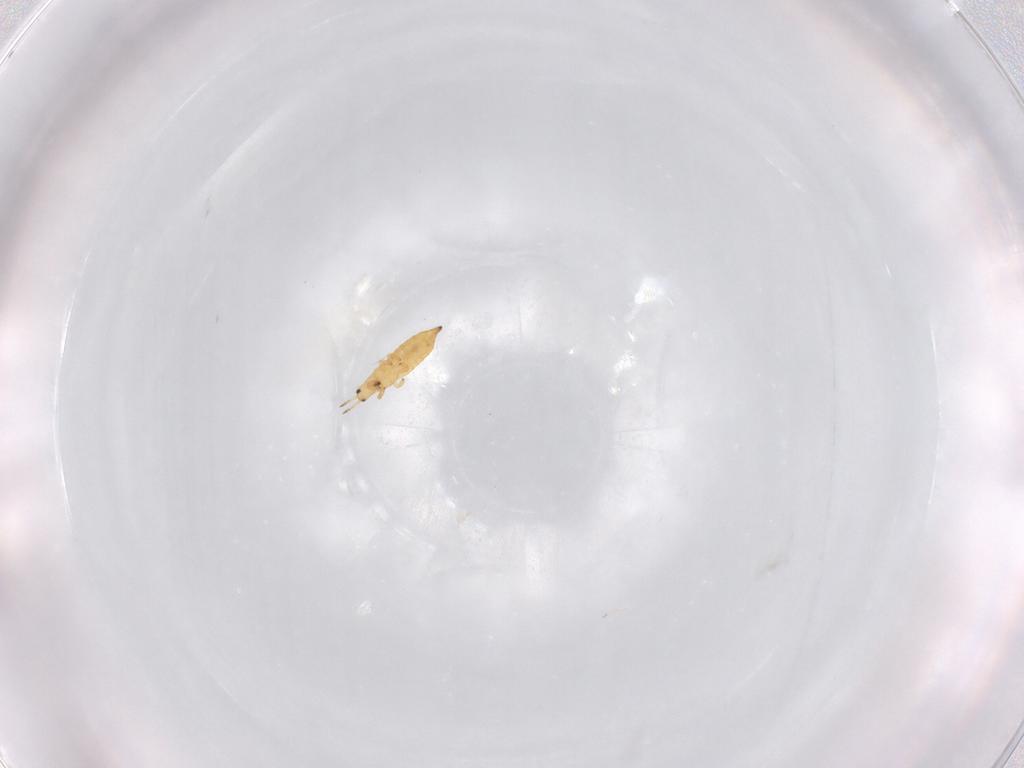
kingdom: Animalia
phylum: Arthropoda
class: Insecta
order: Thysanoptera
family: Thripidae
